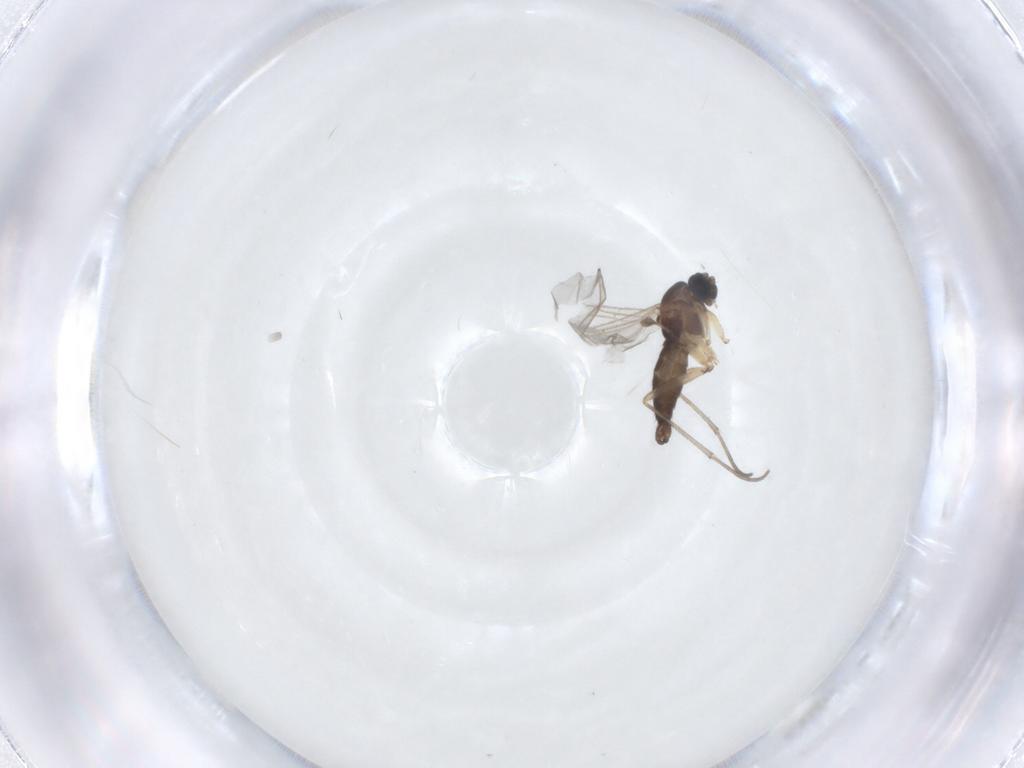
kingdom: Animalia
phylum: Arthropoda
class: Insecta
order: Diptera
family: Sciaridae
